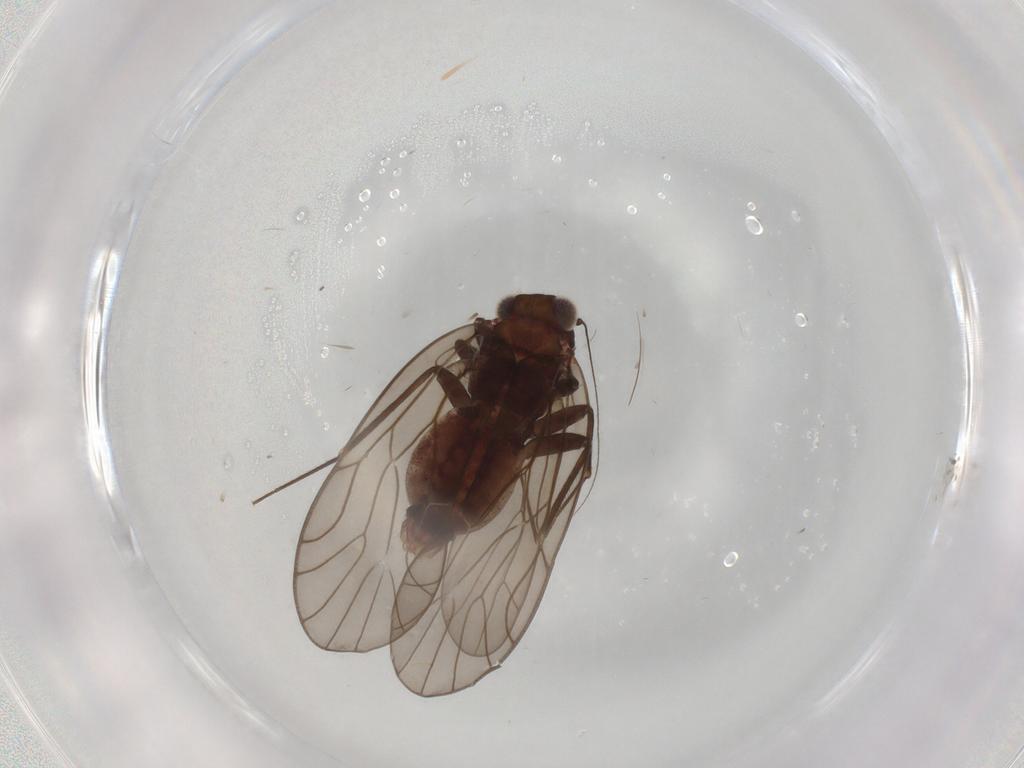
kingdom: Animalia
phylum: Arthropoda
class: Insecta
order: Psocodea
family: Philotarsidae
